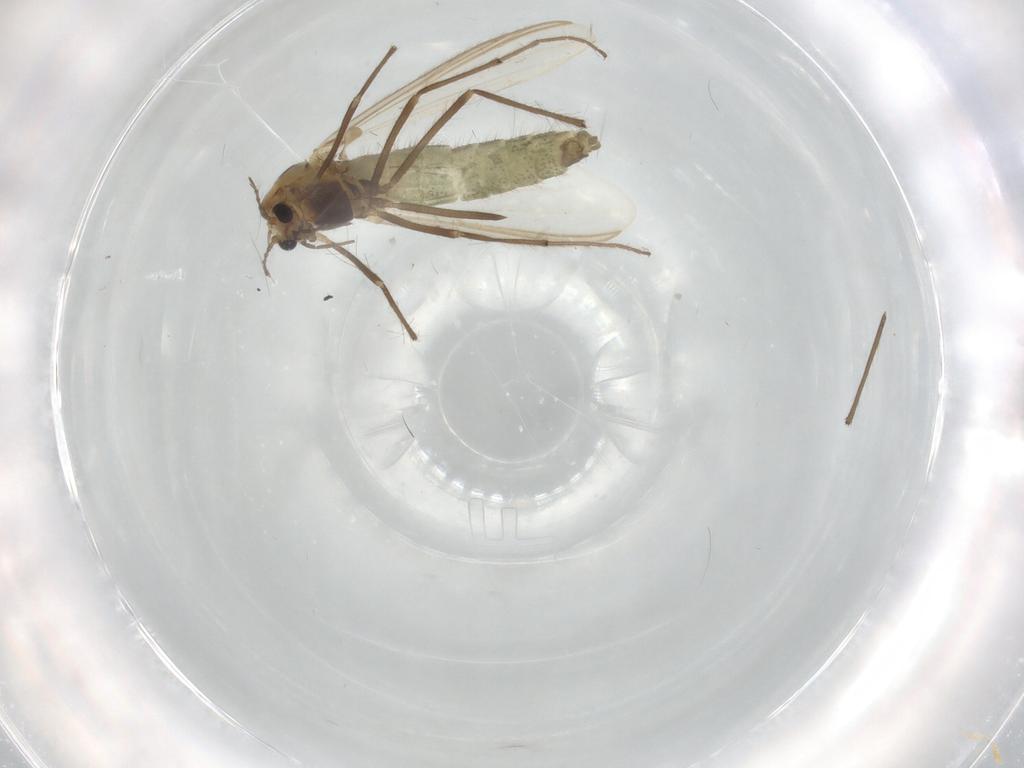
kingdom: Animalia
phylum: Arthropoda
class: Insecta
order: Diptera
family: Chironomidae
